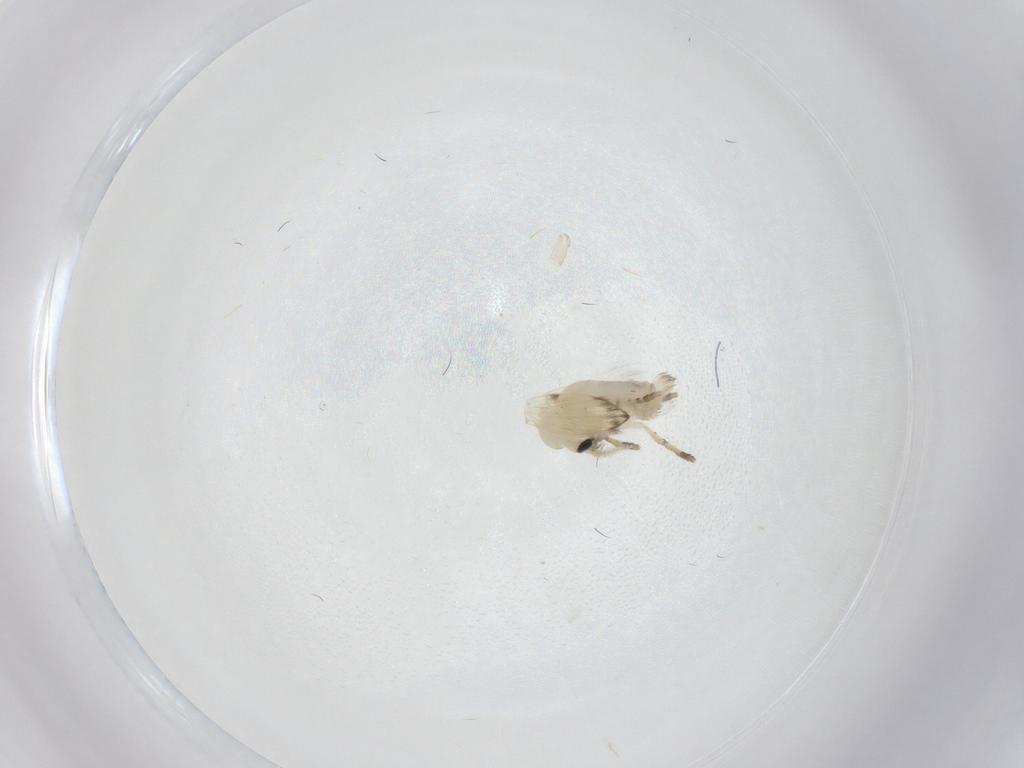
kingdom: Animalia
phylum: Arthropoda
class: Insecta
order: Diptera
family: Psychodidae
